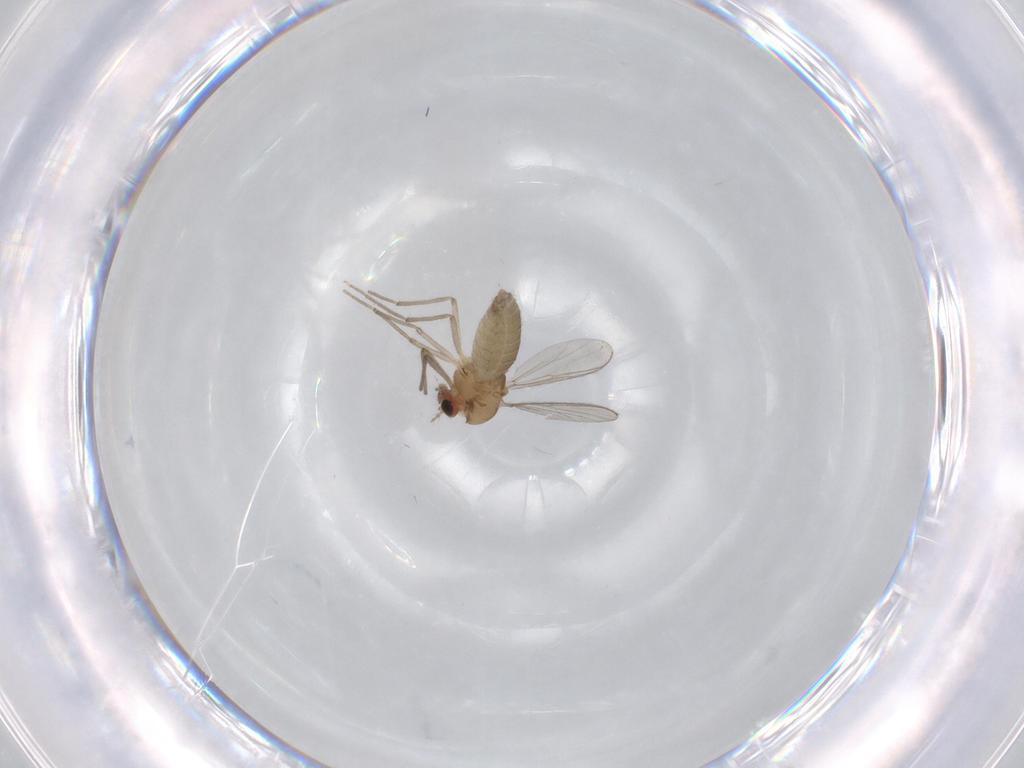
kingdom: Animalia
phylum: Arthropoda
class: Insecta
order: Diptera
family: Chironomidae
